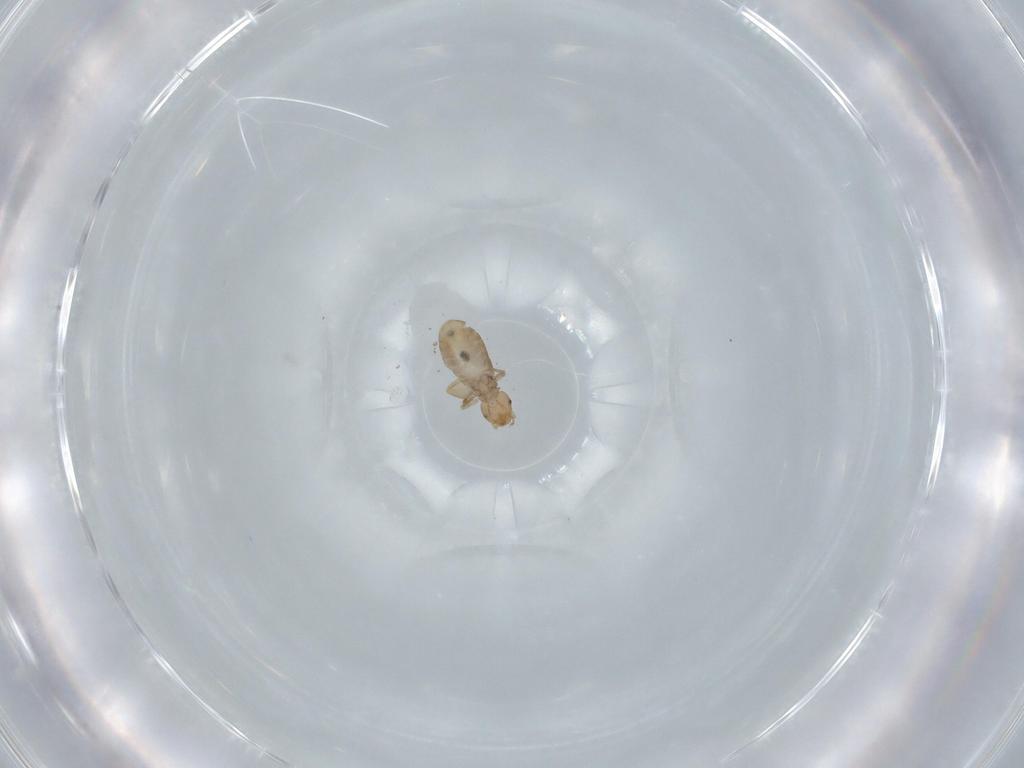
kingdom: Animalia
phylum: Arthropoda
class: Insecta
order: Psocodea
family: Liposcelididae
